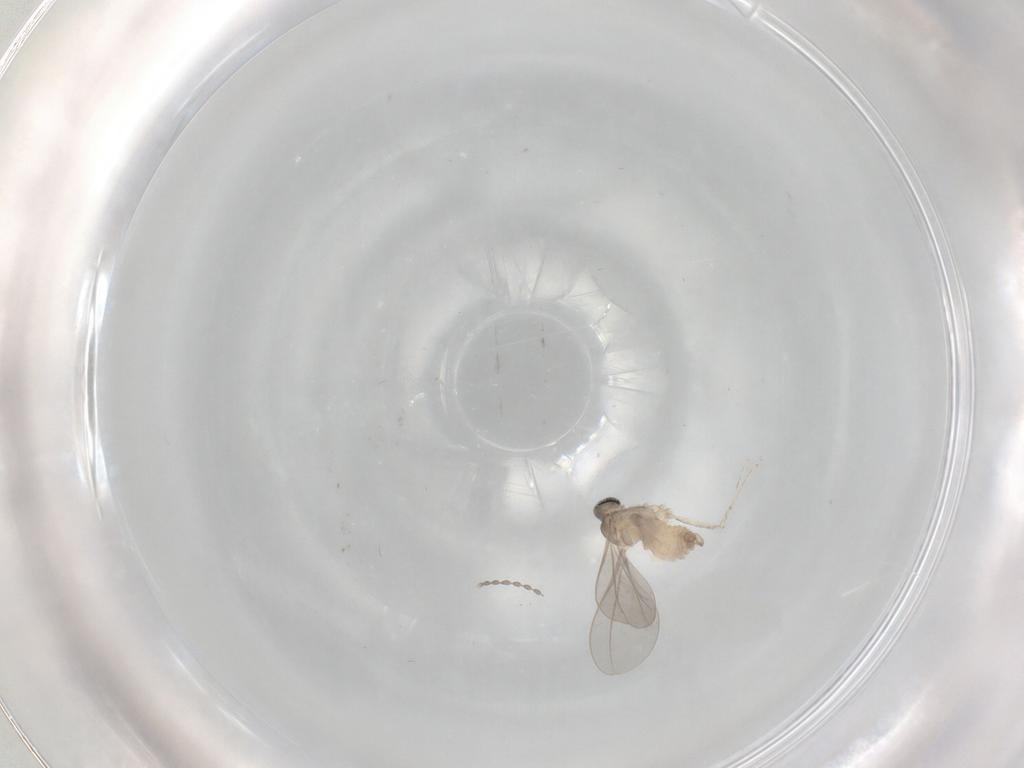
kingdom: Animalia
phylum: Arthropoda
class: Insecta
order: Diptera
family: Cecidomyiidae
